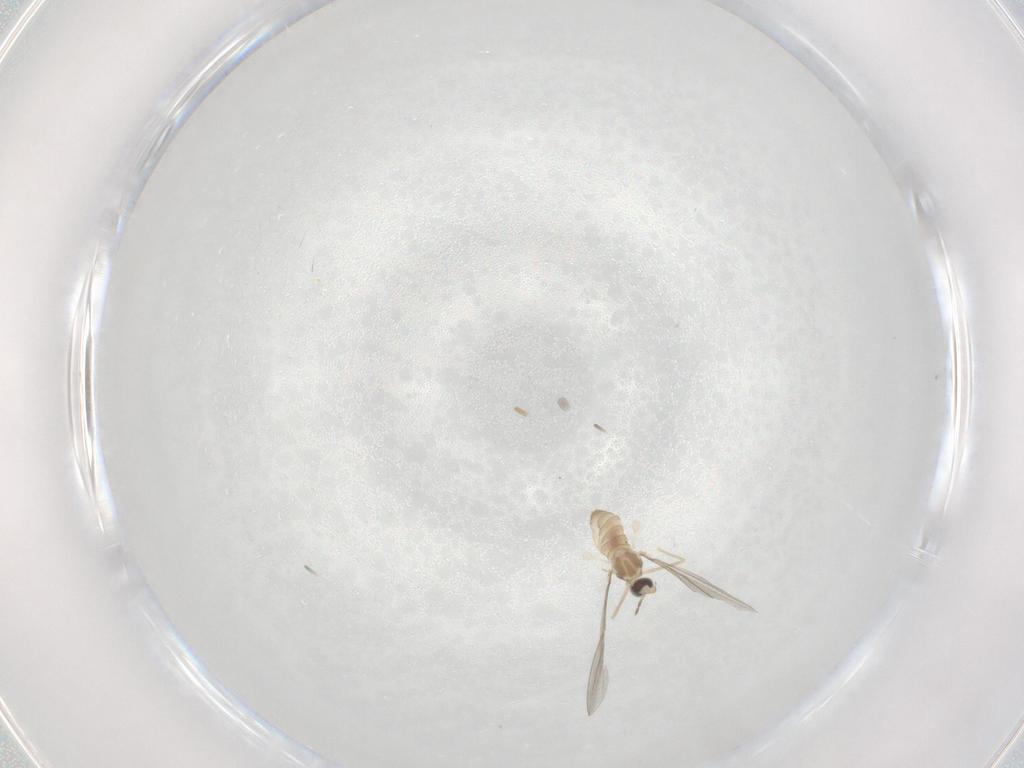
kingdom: Animalia
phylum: Arthropoda
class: Insecta
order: Diptera
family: Cecidomyiidae
